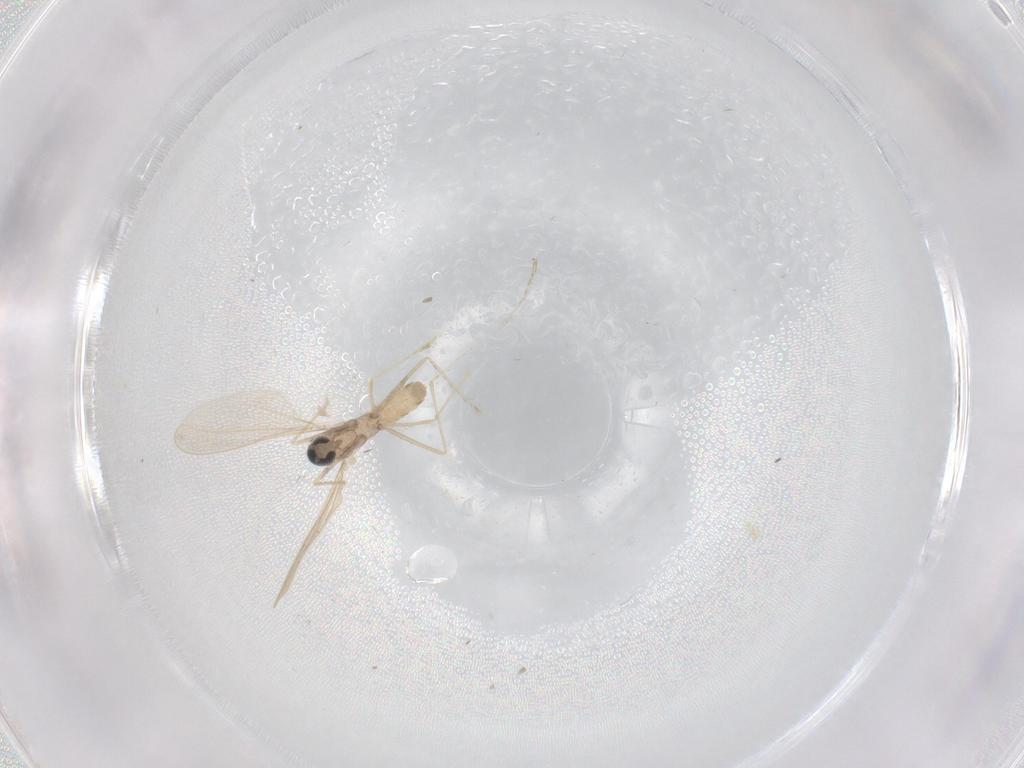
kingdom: Animalia
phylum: Arthropoda
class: Insecta
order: Diptera
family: Cecidomyiidae
